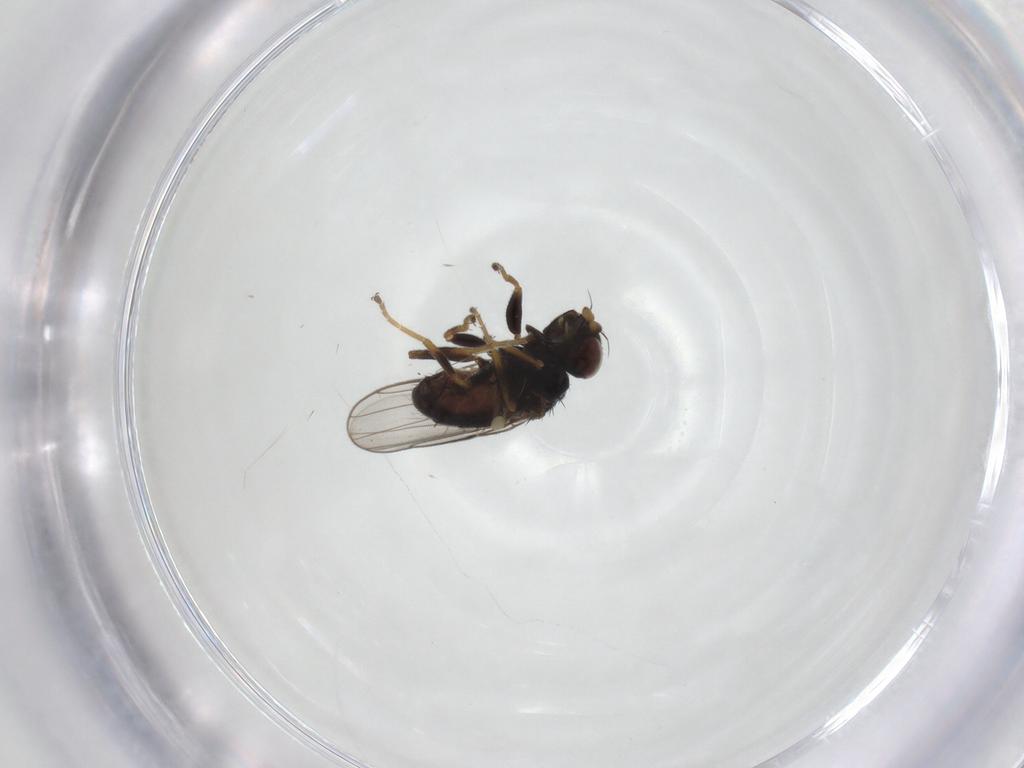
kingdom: Animalia
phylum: Arthropoda
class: Insecta
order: Diptera
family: Chloropidae
